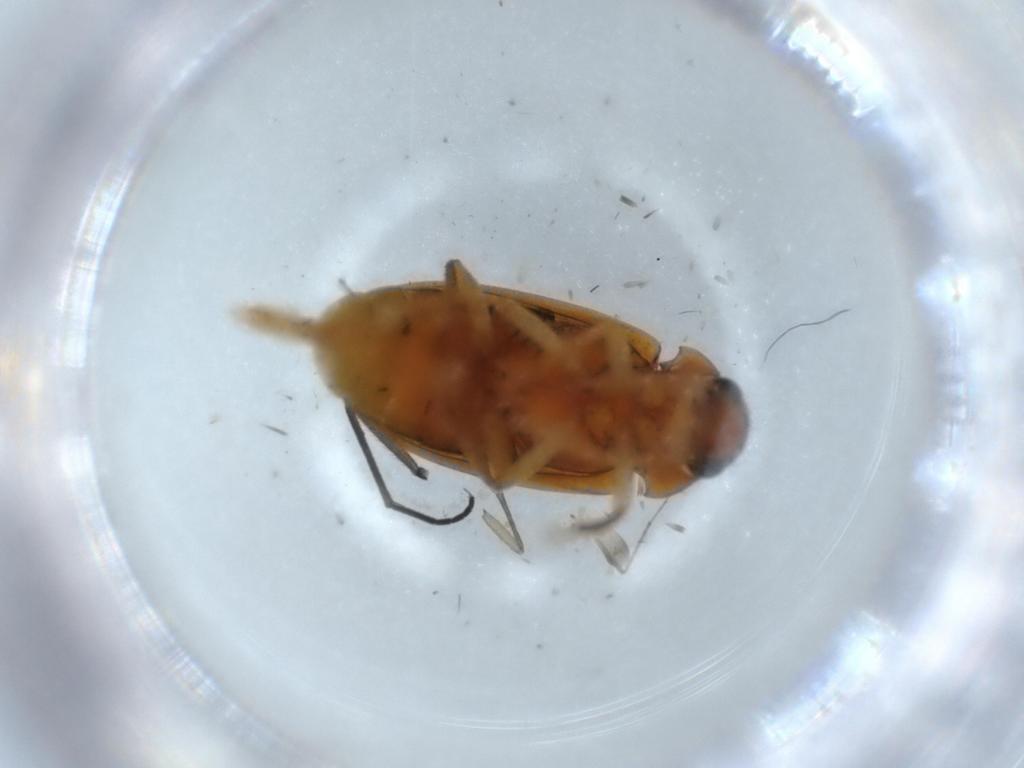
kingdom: Animalia
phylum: Arthropoda
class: Insecta
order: Coleoptera
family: Ptilodactylidae
